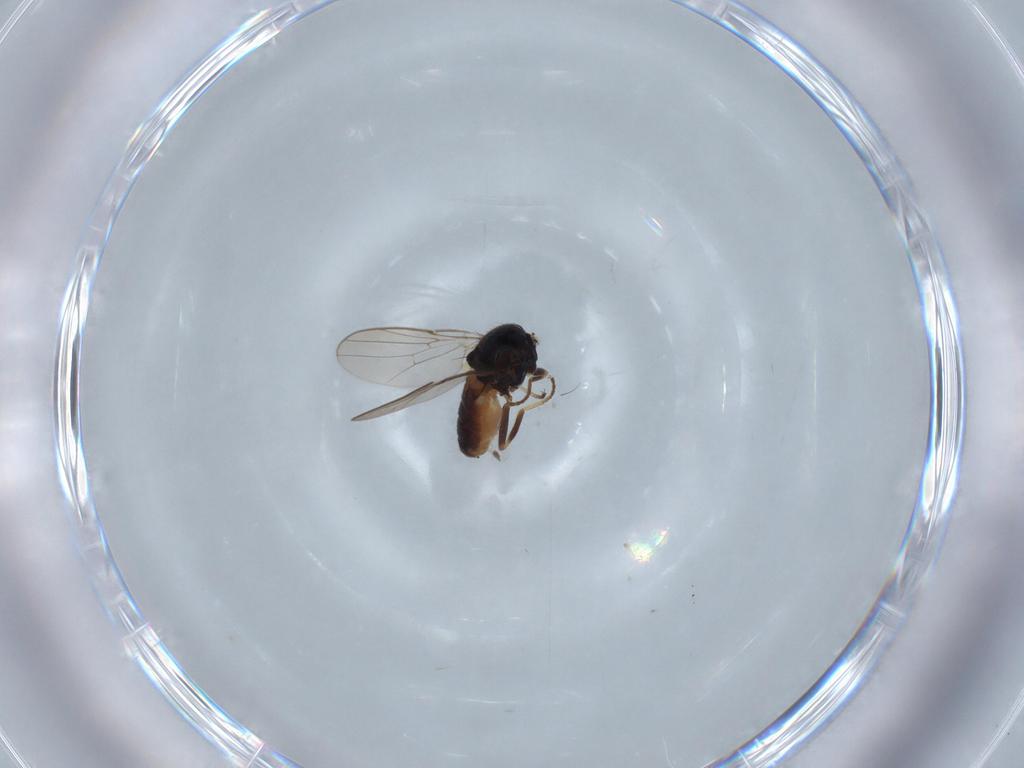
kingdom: Animalia
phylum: Arthropoda
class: Insecta
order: Diptera
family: Chloropidae
